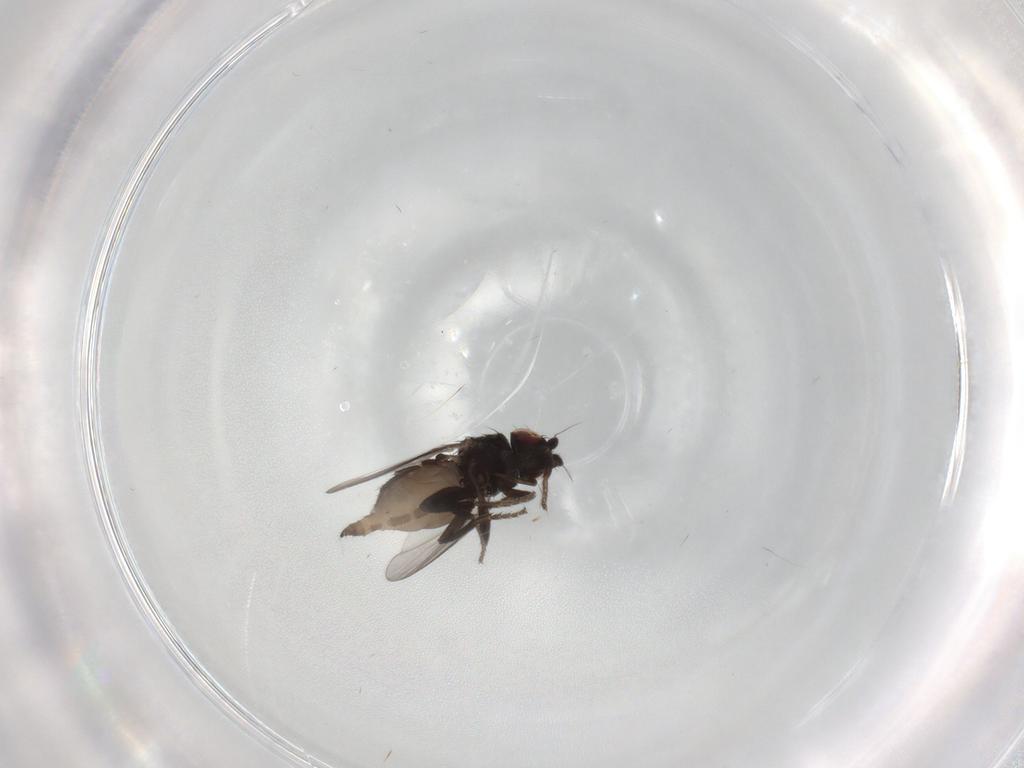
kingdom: Animalia
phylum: Arthropoda
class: Insecta
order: Diptera
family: Milichiidae
